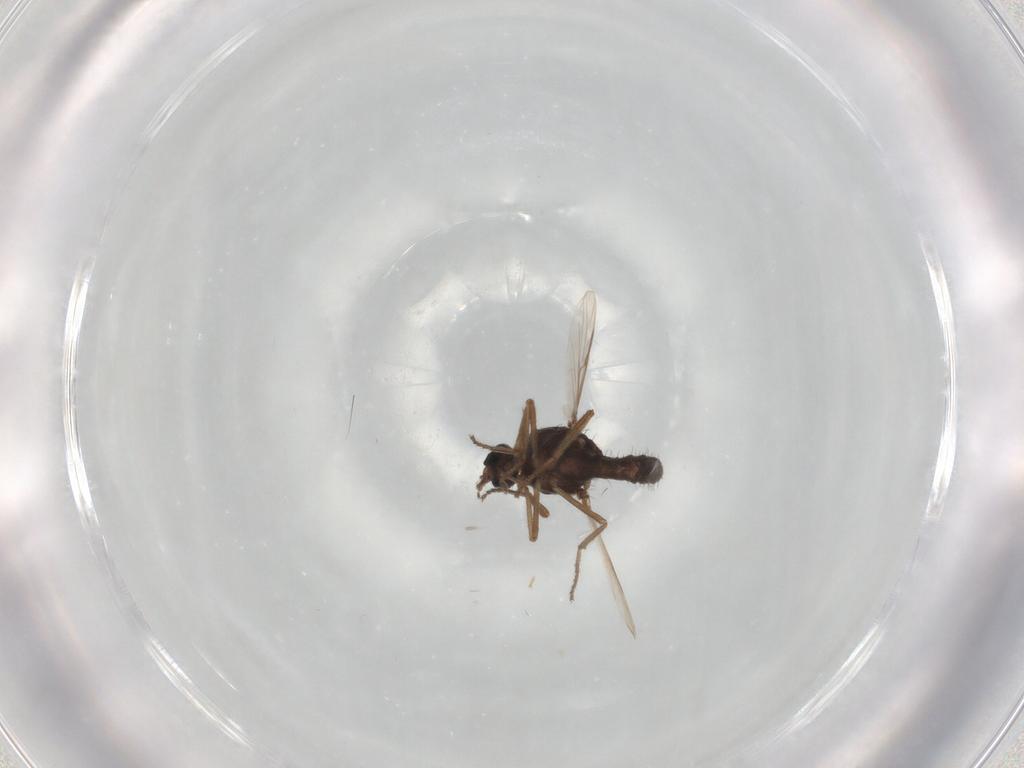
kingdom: Animalia
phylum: Arthropoda
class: Insecta
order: Diptera
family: Ceratopogonidae
